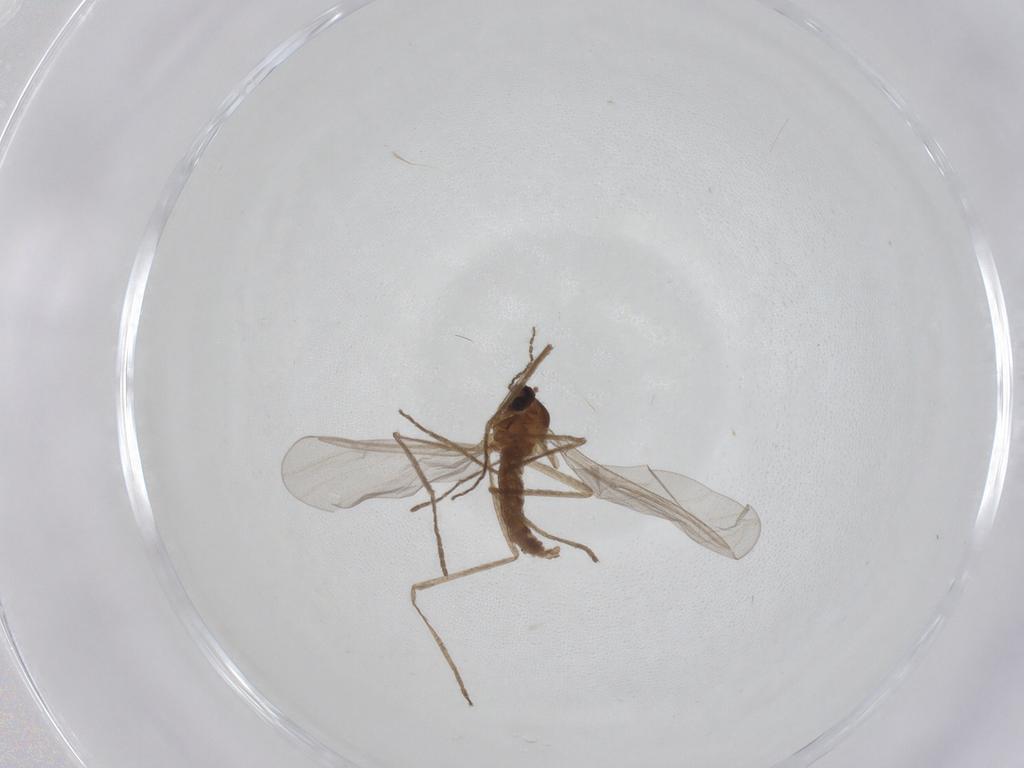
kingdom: Animalia
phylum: Arthropoda
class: Insecta
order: Diptera
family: Cecidomyiidae
